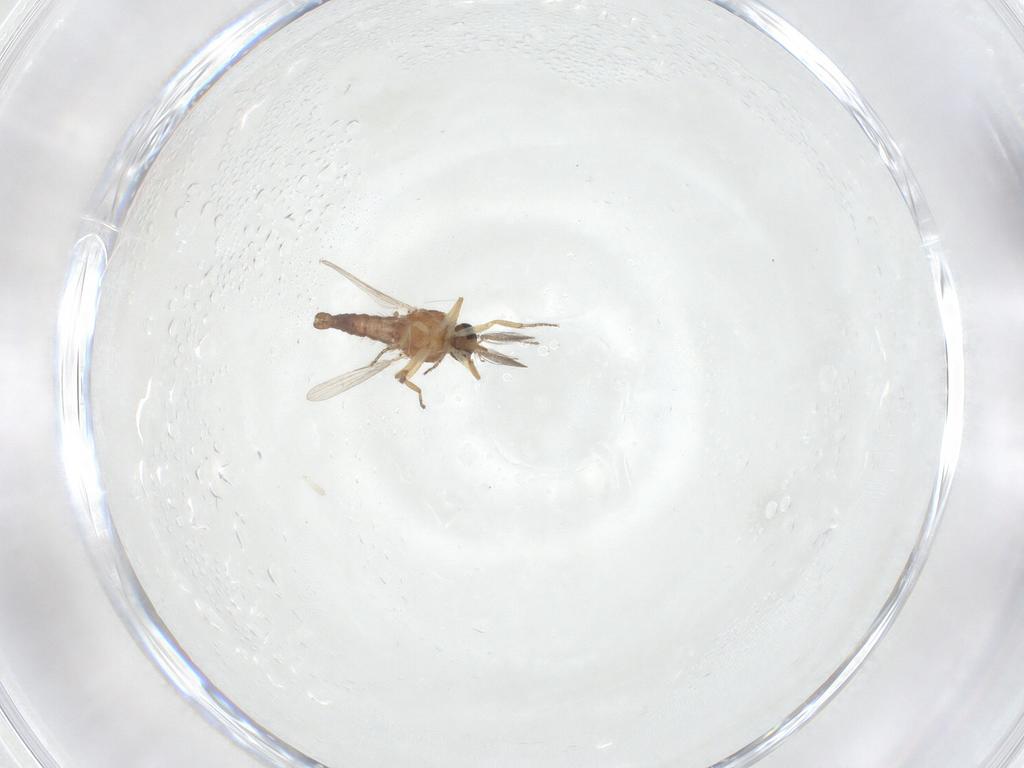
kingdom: Animalia
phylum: Arthropoda
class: Insecta
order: Diptera
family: Ceratopogonidae
